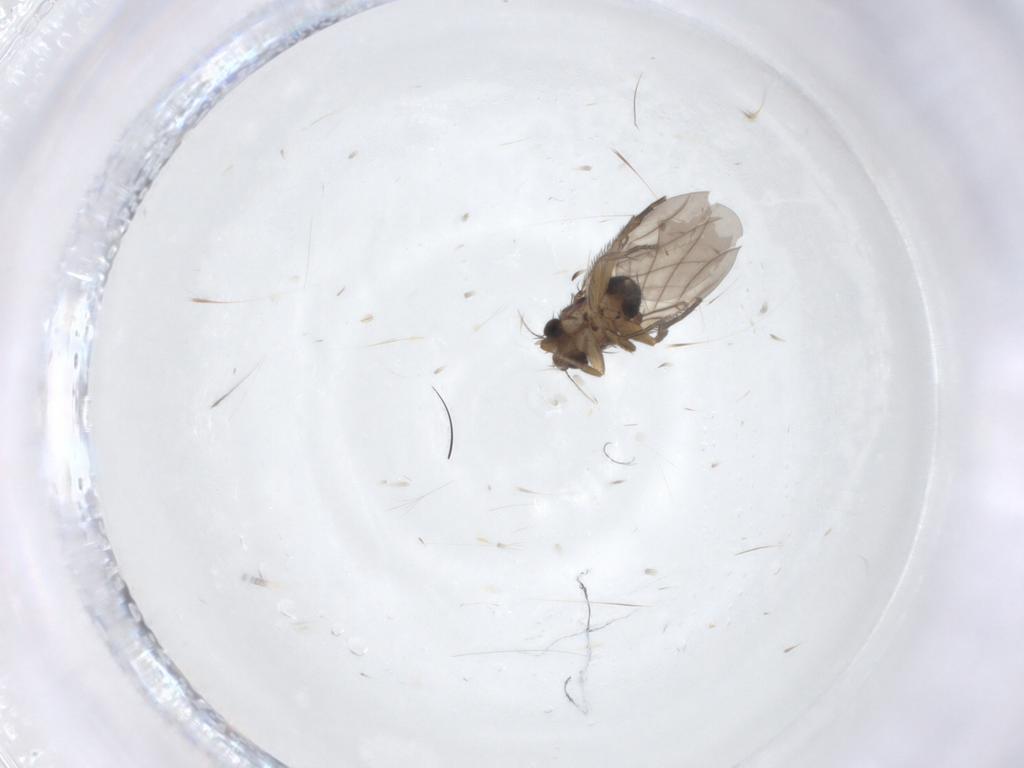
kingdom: Animalia
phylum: Arthropoda
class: Insecta
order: Diptera
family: Phoridae
